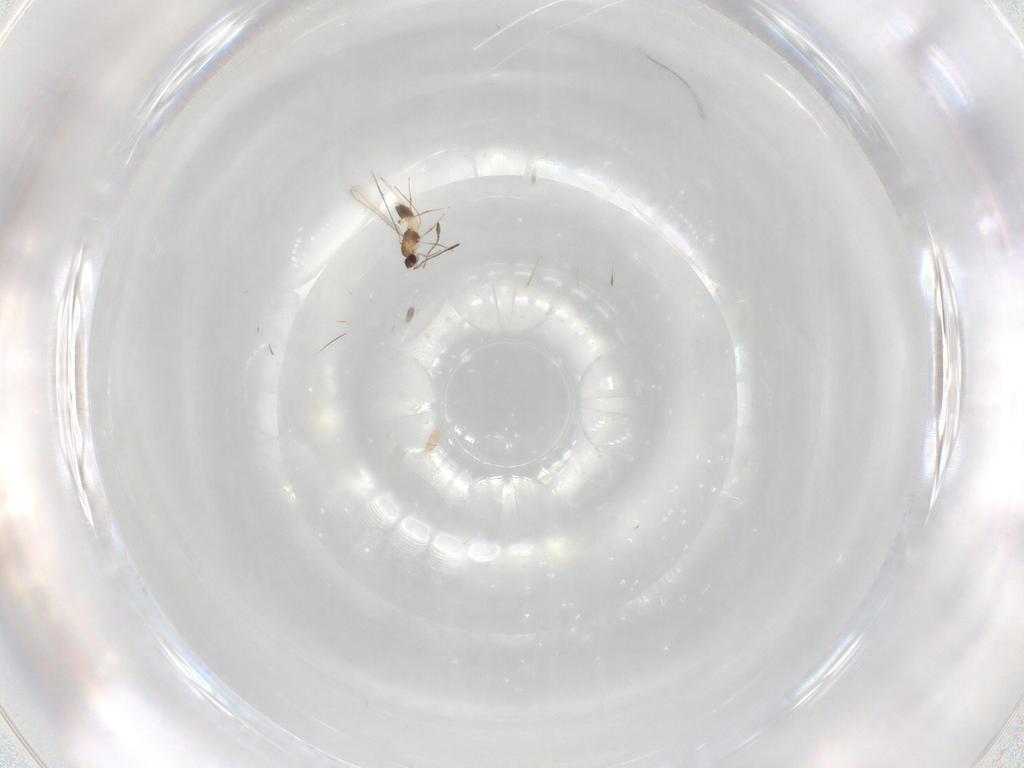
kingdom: Animalia
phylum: Arthropoda
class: Insecta
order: Hymenoptera
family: Mymaridae
